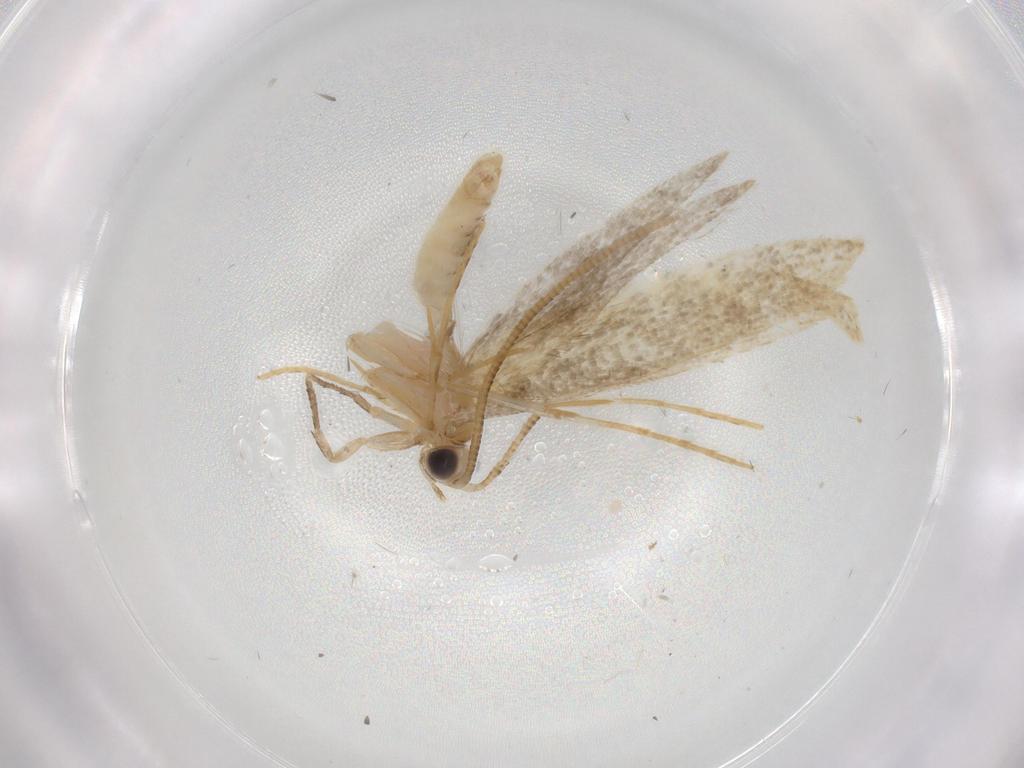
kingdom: Animalia
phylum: Arthropoda
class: Insecta
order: Lepidoptera
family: Tineidae
